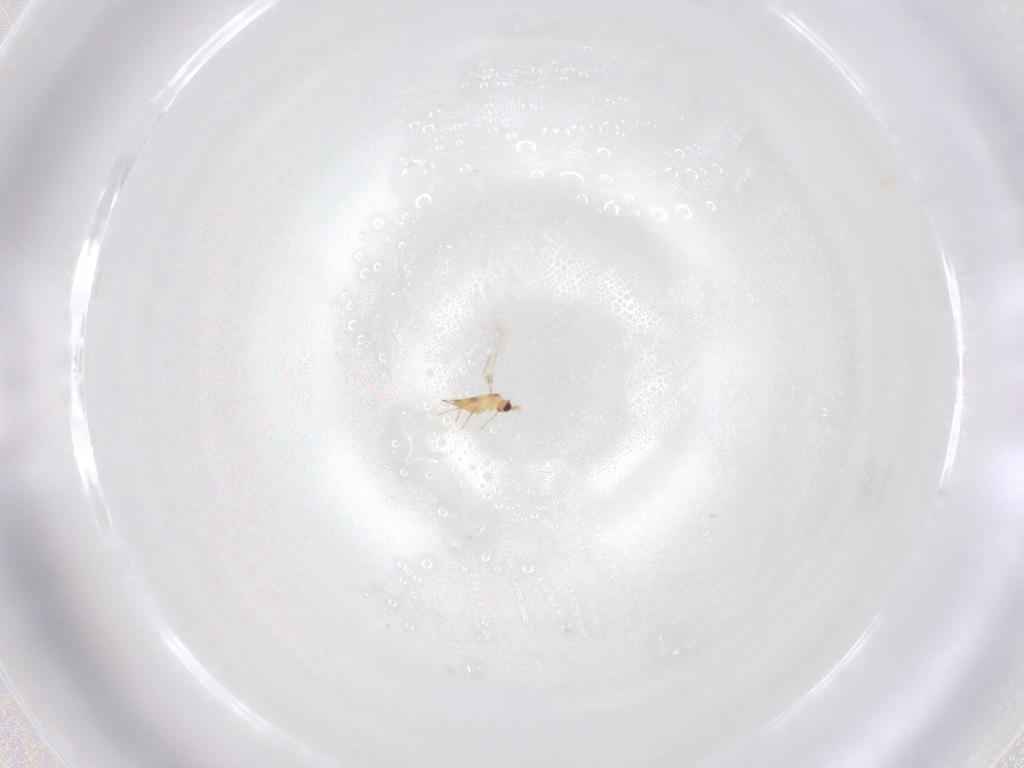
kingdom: Animalia
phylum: Arthropoda
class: Insecta
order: Hymenoptera
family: Mymaridae
